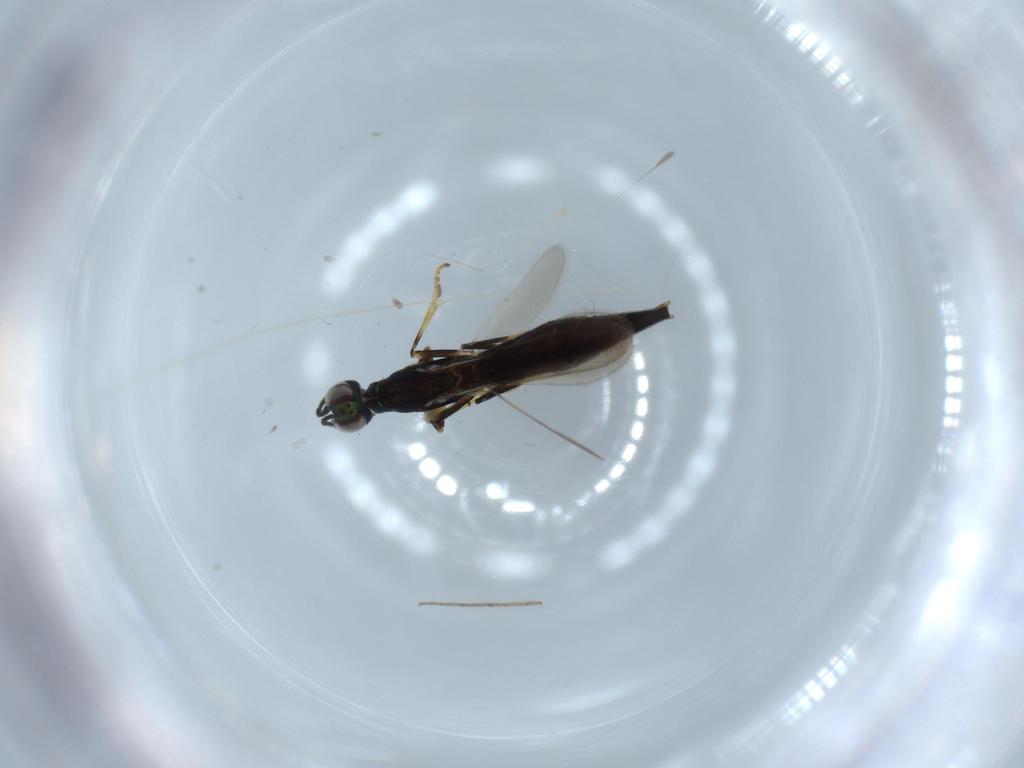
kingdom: Animalia
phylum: Arthropoda
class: Insecta
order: Hymenoptera
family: Eupelmidae
